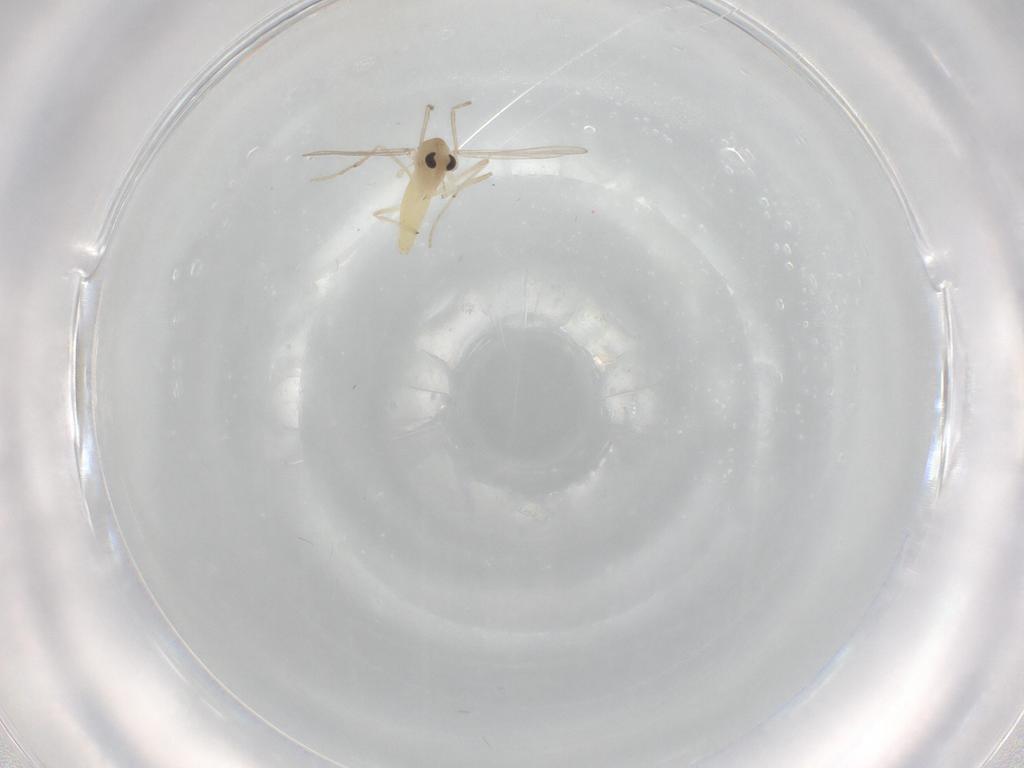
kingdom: Animalia
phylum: Arthropoda
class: Insecta
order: Diptera
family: Chironomidae
